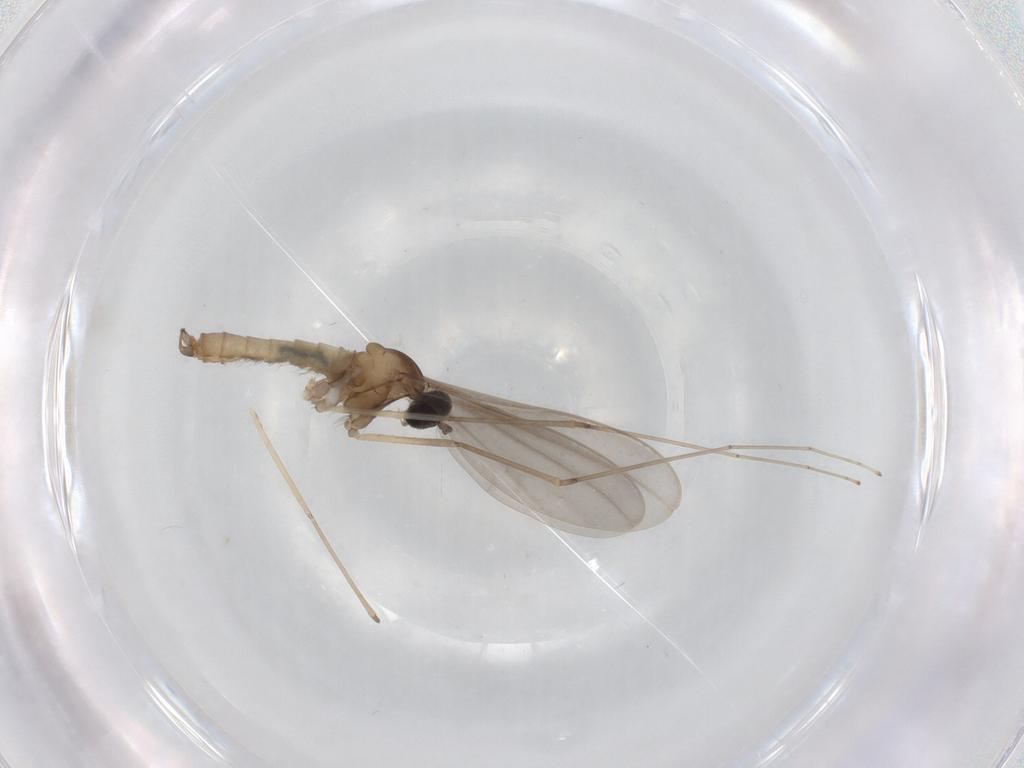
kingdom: Animalia
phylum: Arthropoda
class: Insecta
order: Diptera
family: Cecidomyiidae
